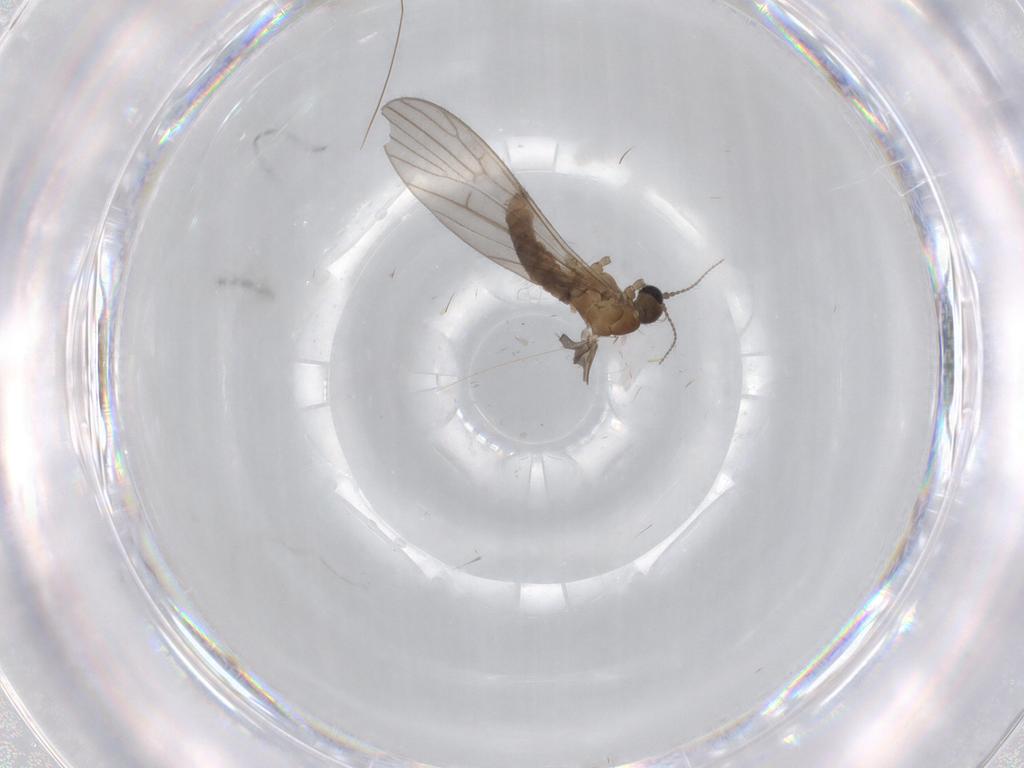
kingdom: Animalia
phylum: Arthropoda
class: Insecta
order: Diptera
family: Limoniidae
